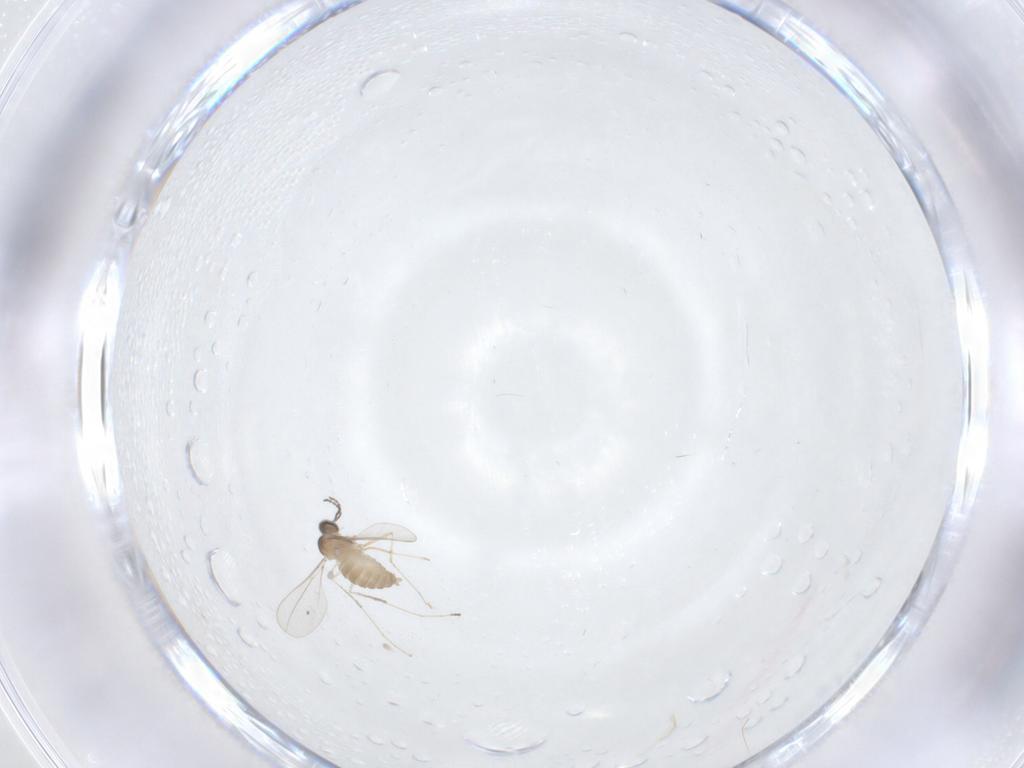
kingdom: Animalia
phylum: Arthropoda
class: Insecta
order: Diptera
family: Cecidomyiidae
